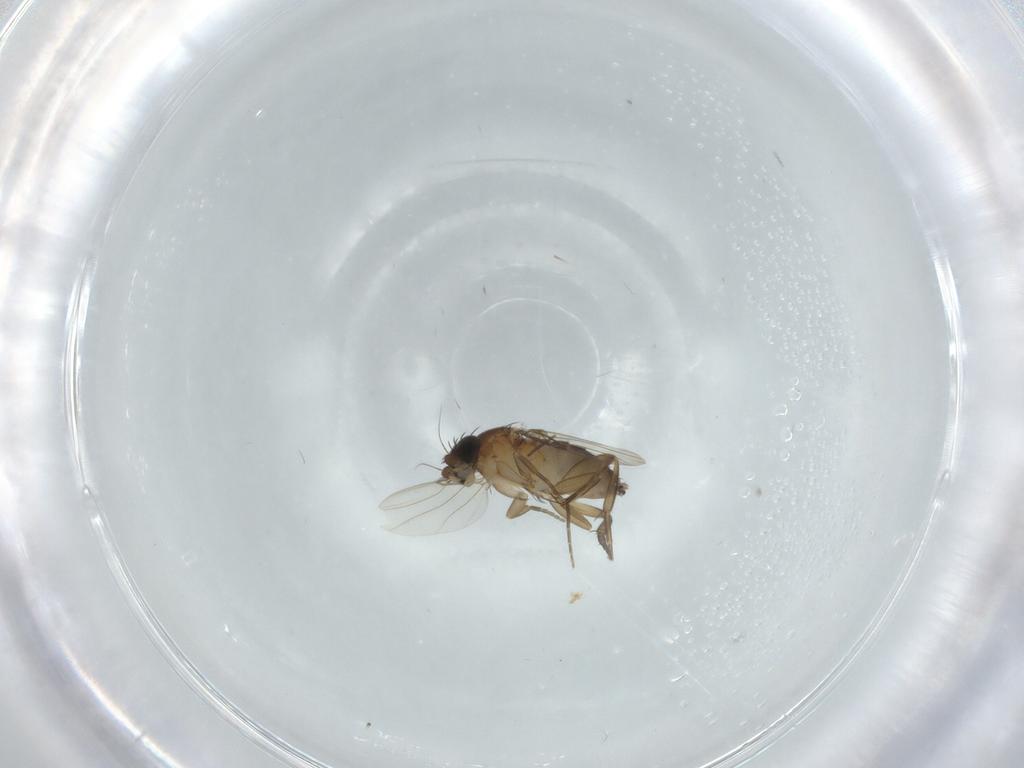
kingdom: Animalia
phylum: Arthropoda
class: Insecta
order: Diptera
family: Phoridae
